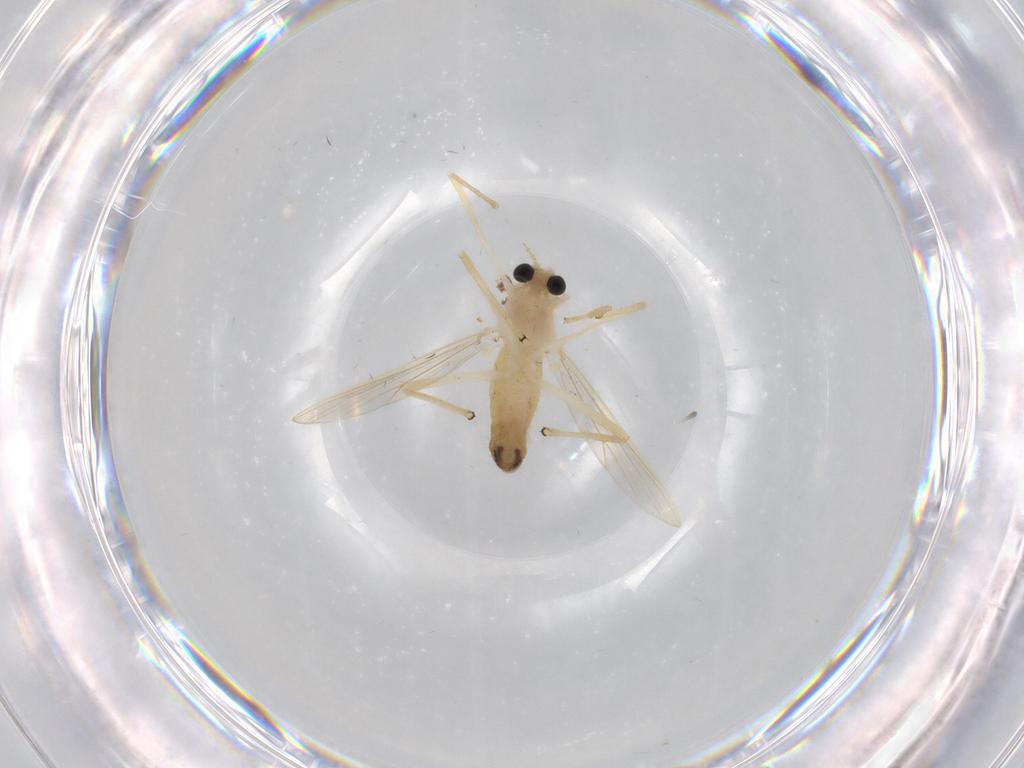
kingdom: Animalia
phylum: Arthropoda
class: Insecta
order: Diptera
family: Chironomidae
